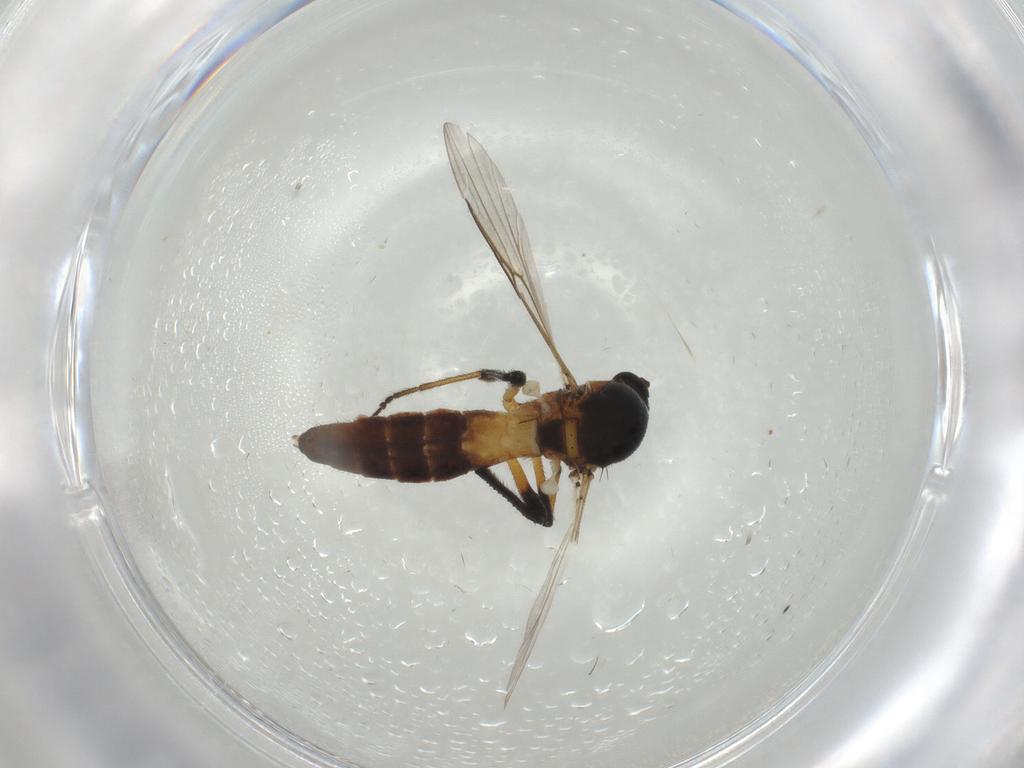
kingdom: Animalia
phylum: Arthropoda
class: Insecta
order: Diptera
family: Ceratopogonidae
